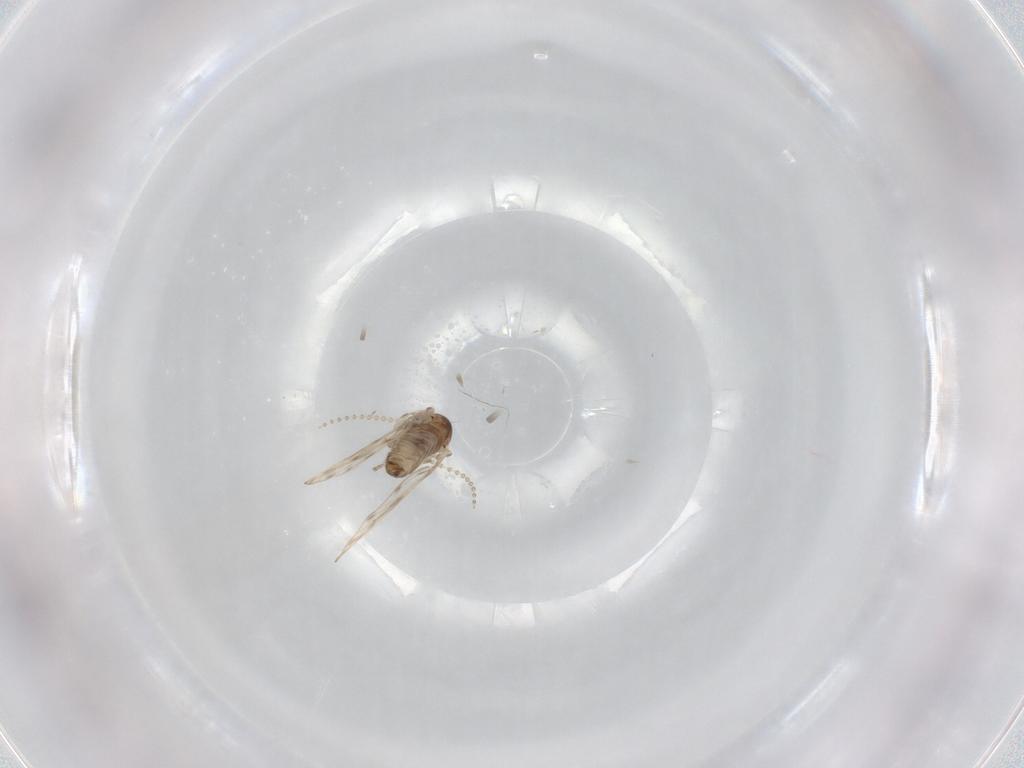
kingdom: Animalia
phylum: Arthropoda
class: Insecta
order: Diptera
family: Psychodidae
